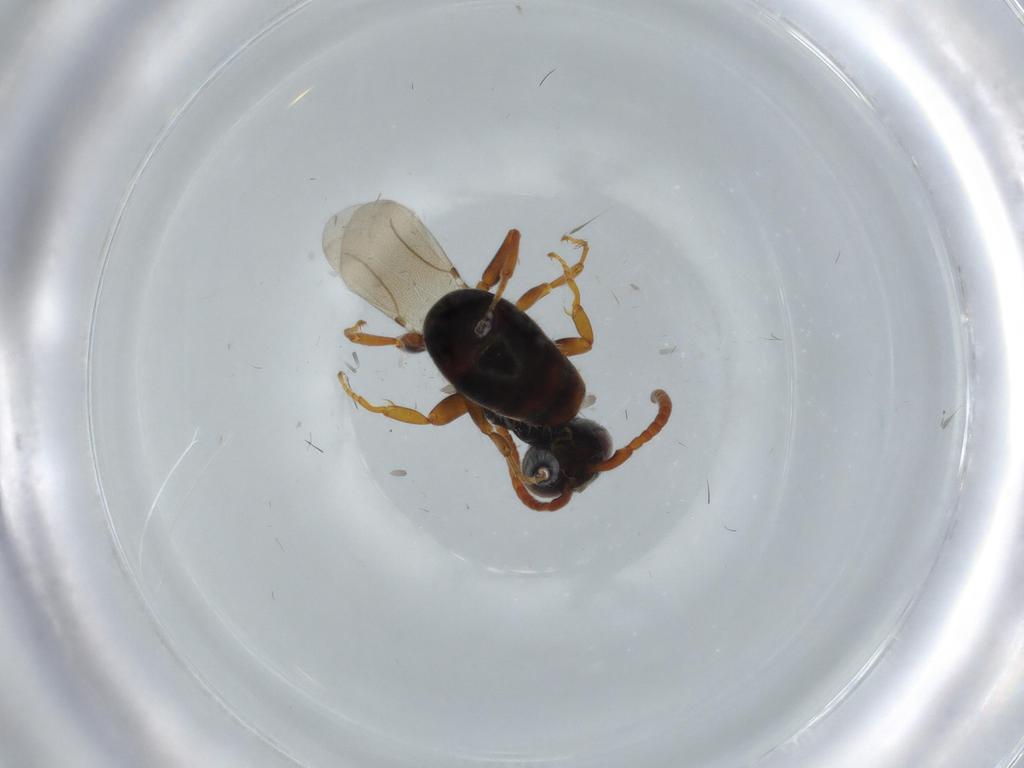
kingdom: Animalia
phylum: Arthropoda
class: Insecta
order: Hymenoptera
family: Bethylidae
